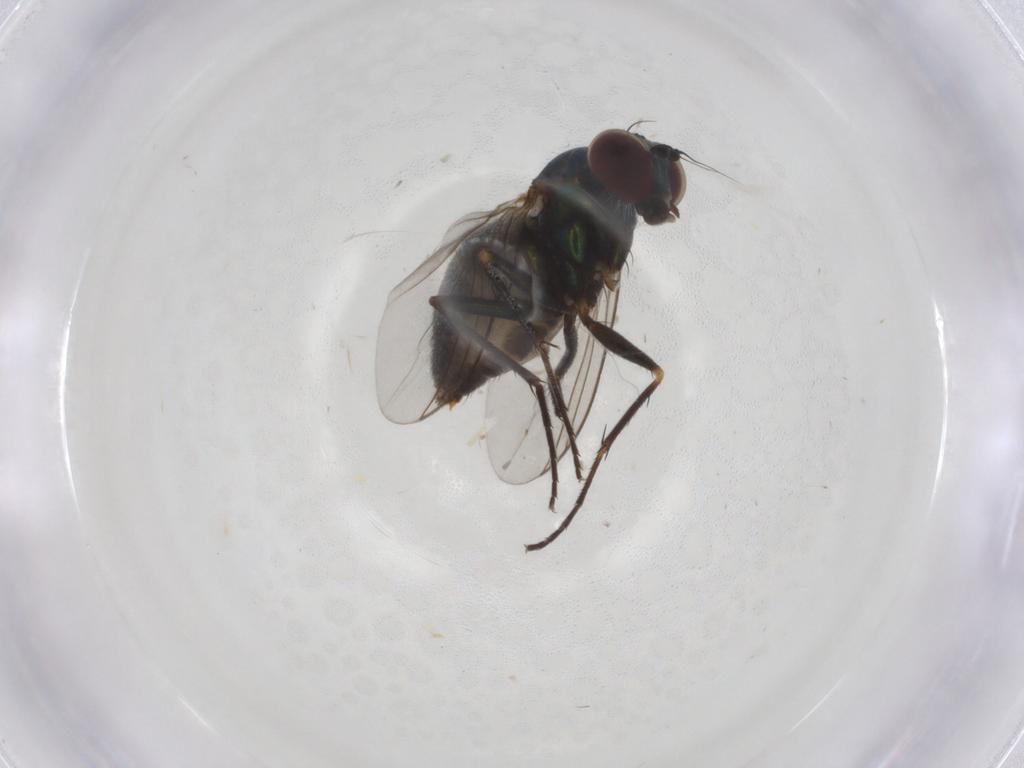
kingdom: Animalia
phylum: Arthropoda
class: Insecta
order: Diptera
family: Dolichopodidae
